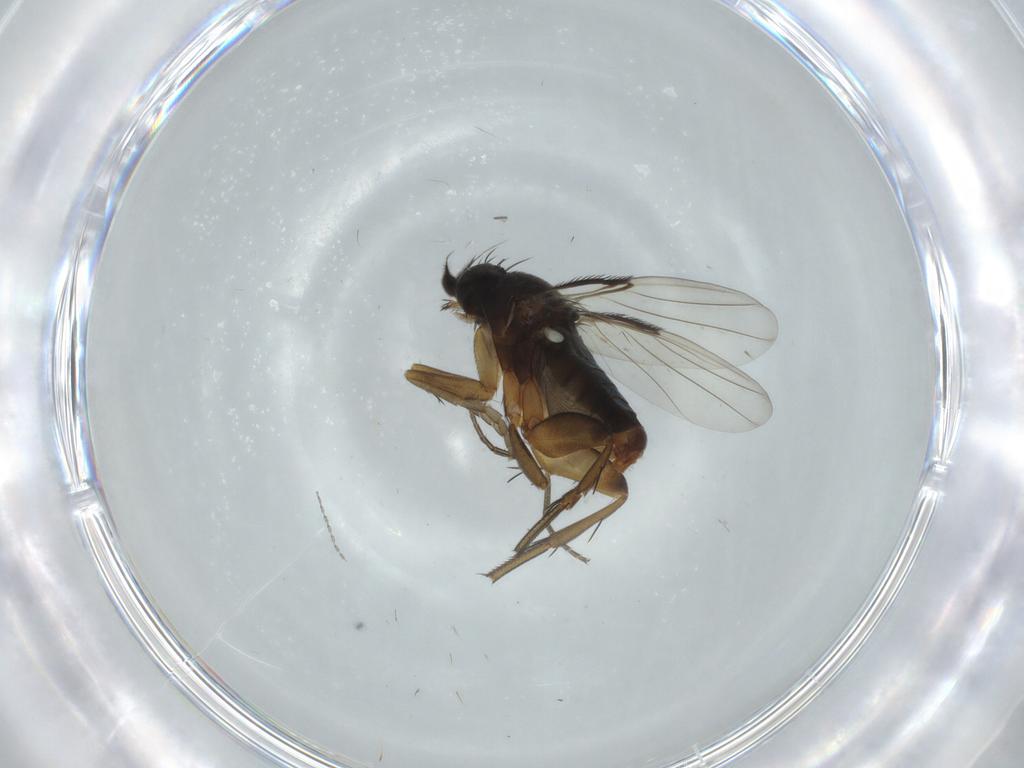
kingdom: Animalia
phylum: Arthropoda
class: Insecta
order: Diptera
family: Phoridae
